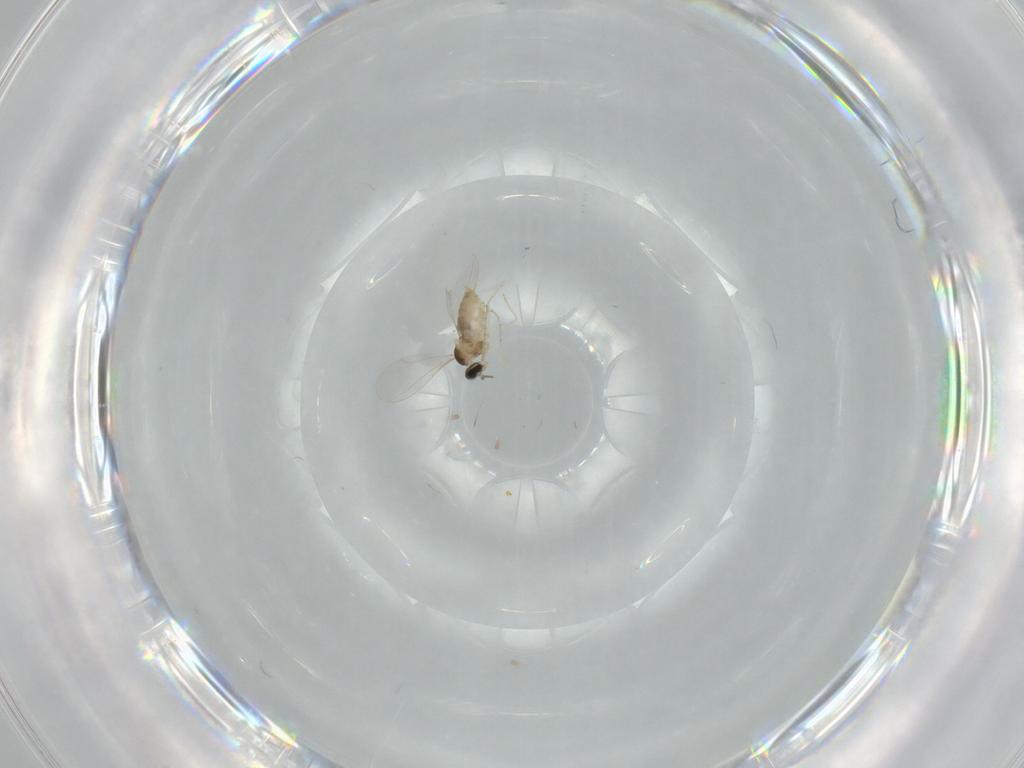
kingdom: Animalia
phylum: Arthropoda
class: Insecta
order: Diptera
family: Cecidomyiidae
